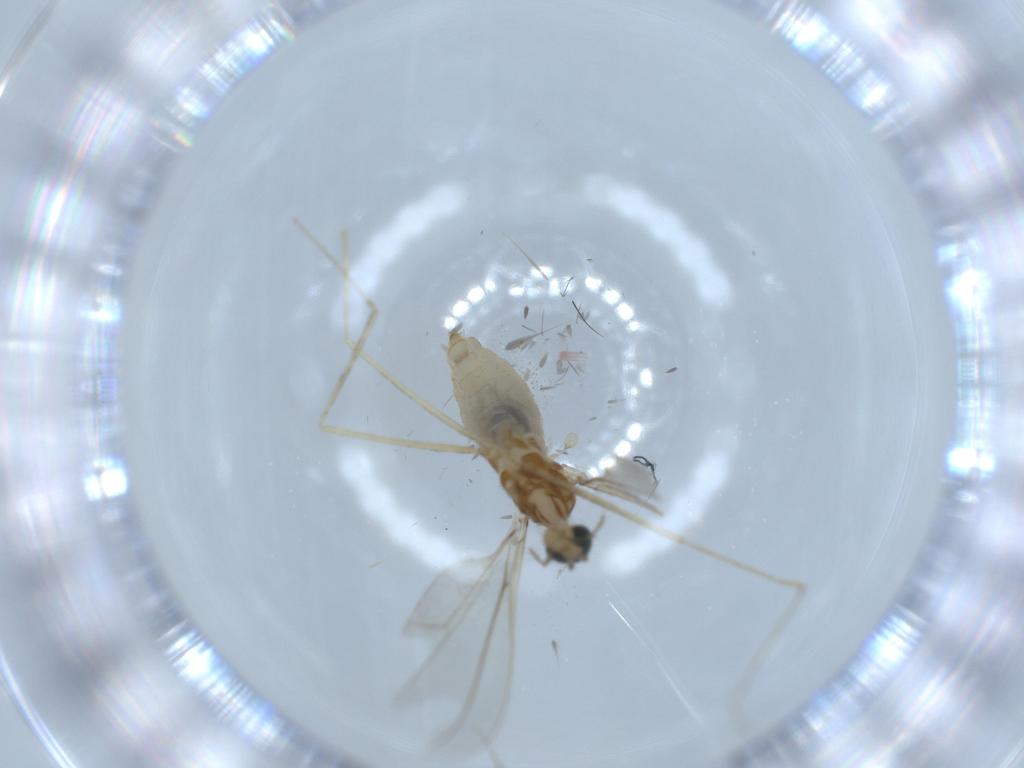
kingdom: Animalia
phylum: Arthropoda
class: Insecta
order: Diptera
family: Cecidomyiidae
